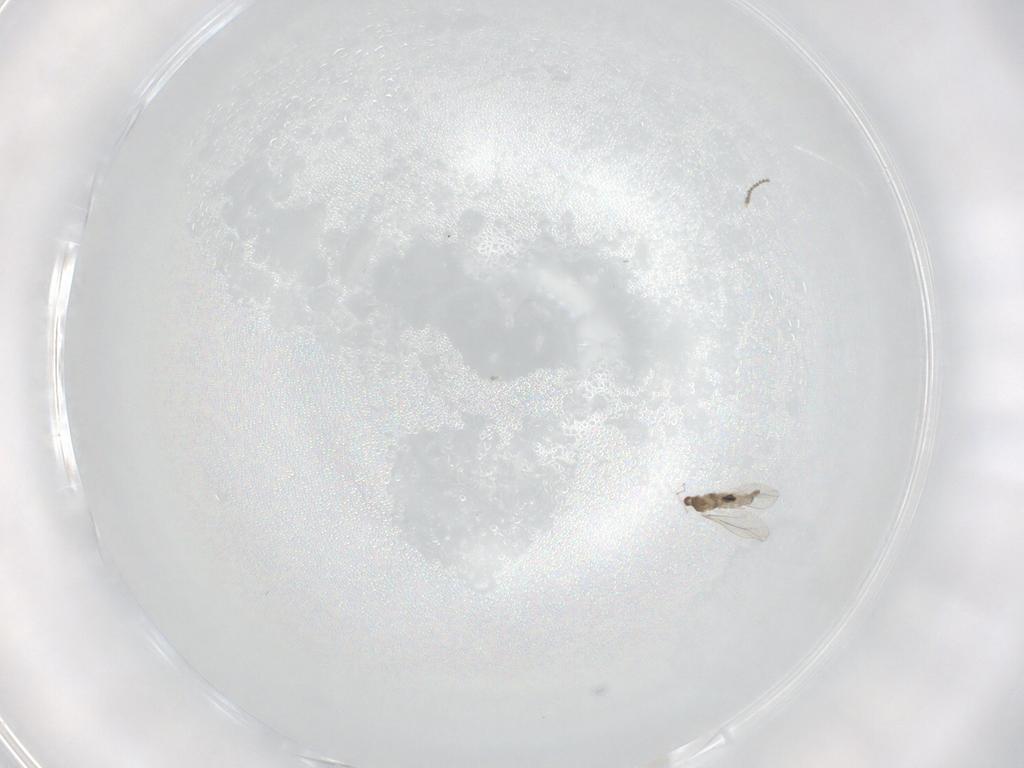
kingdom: Animalia
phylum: Arthropoda
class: Insecta
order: Diptera
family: Cecidomyiidae
